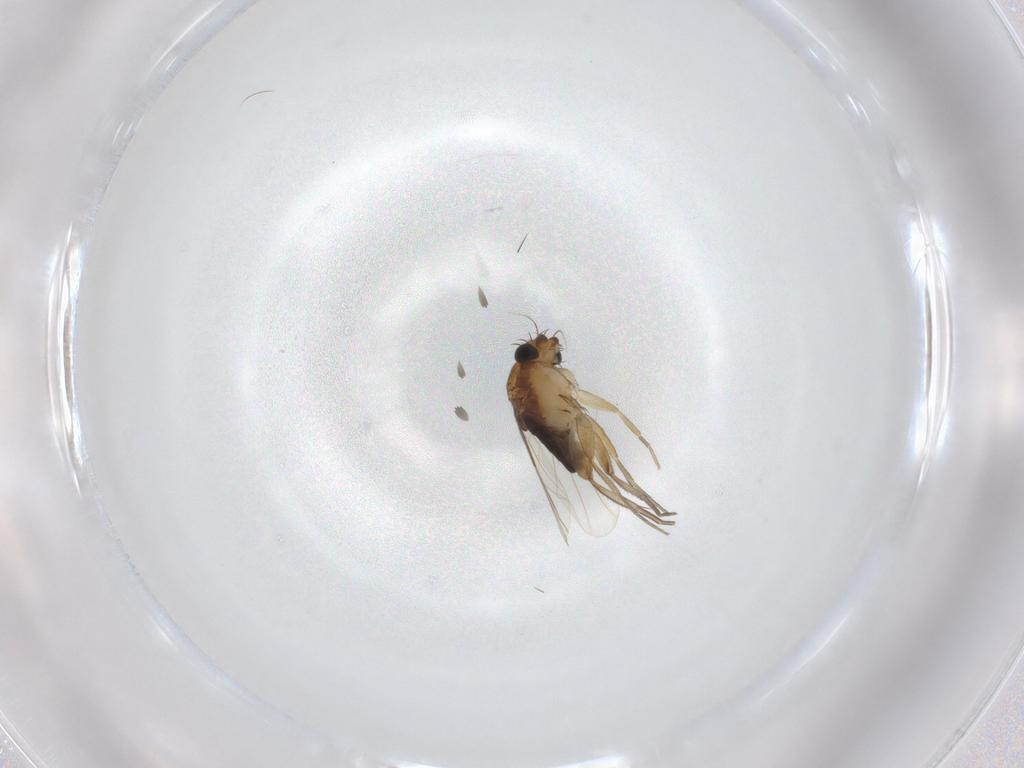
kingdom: Animalia
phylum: Arthropoda
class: Insecta
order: Diptera
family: Phoridae
